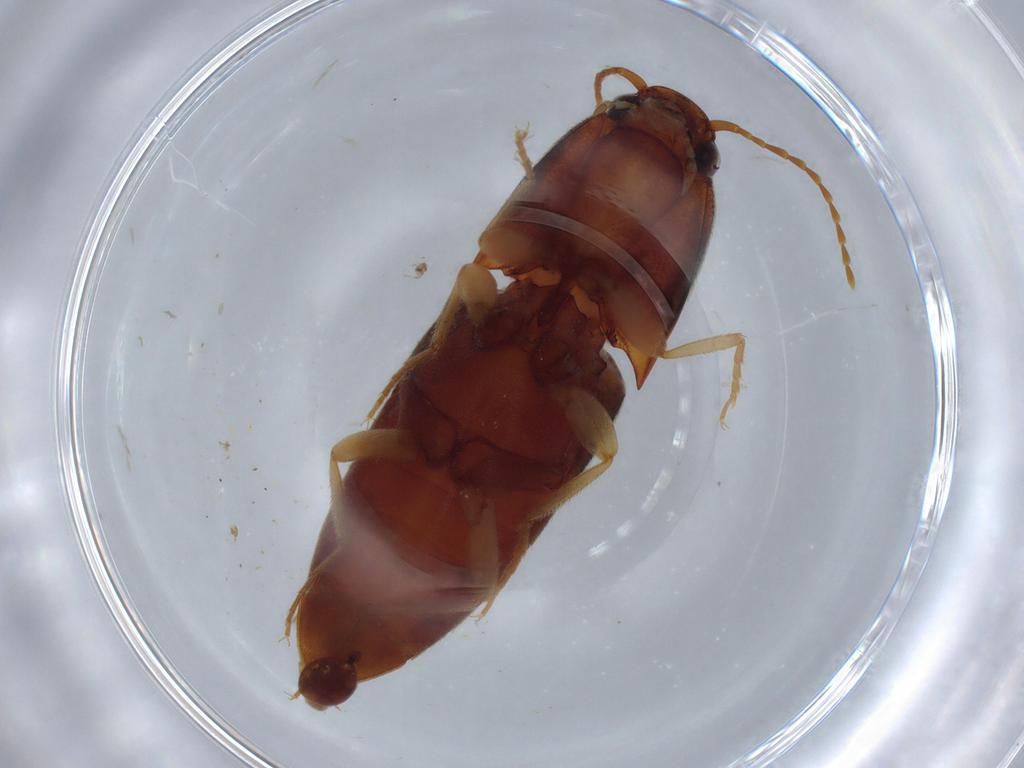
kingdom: Animalia
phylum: Arthropoda
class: Insecta
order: Coleoptera
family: Elateridae
